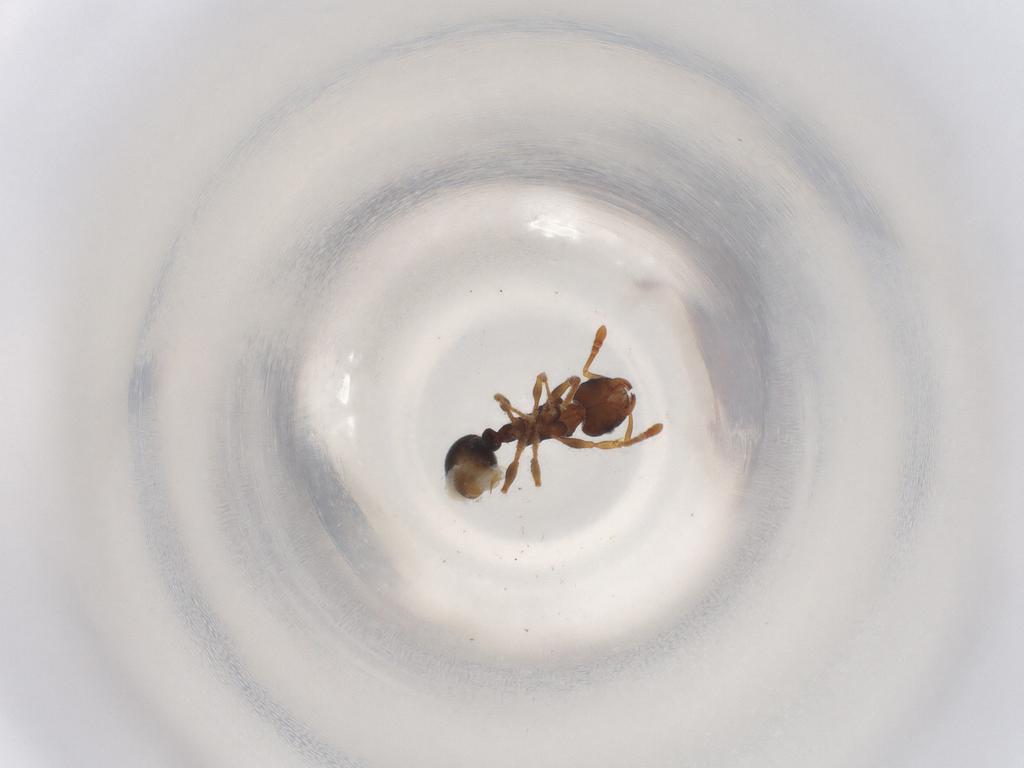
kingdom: Animalia
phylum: Arthropoda
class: Insecta
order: Hymenoptera
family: Formicidae
